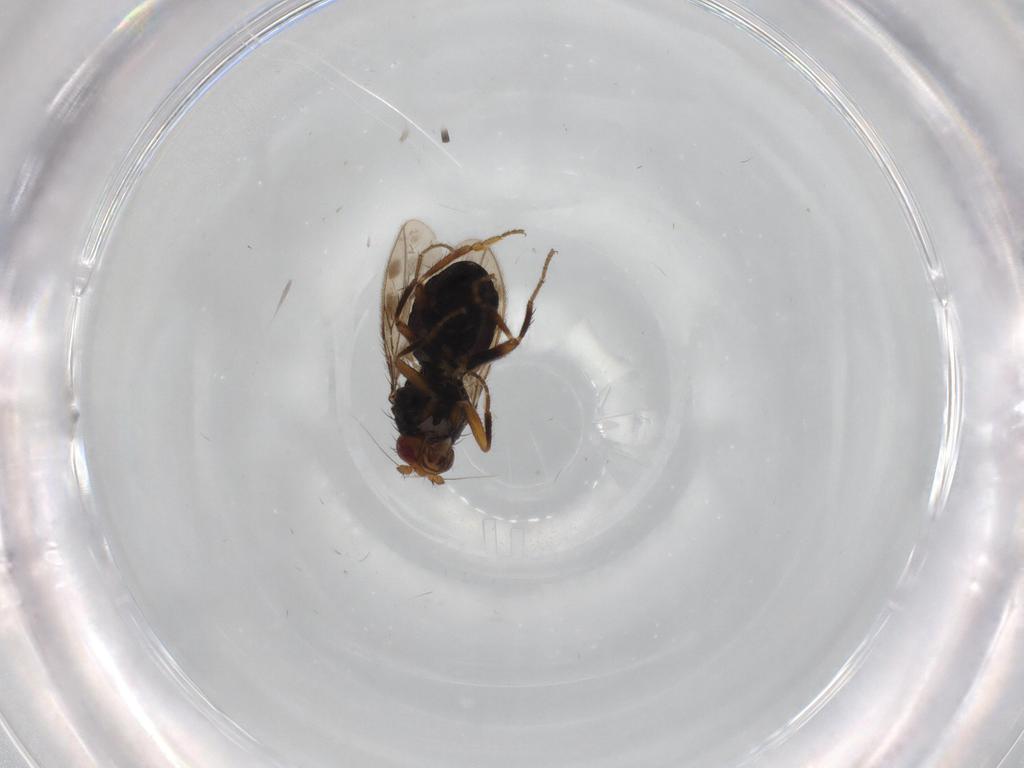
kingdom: Animalia
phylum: Arthropoda
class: Insecta
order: Diptera
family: Sphaeroceridae
